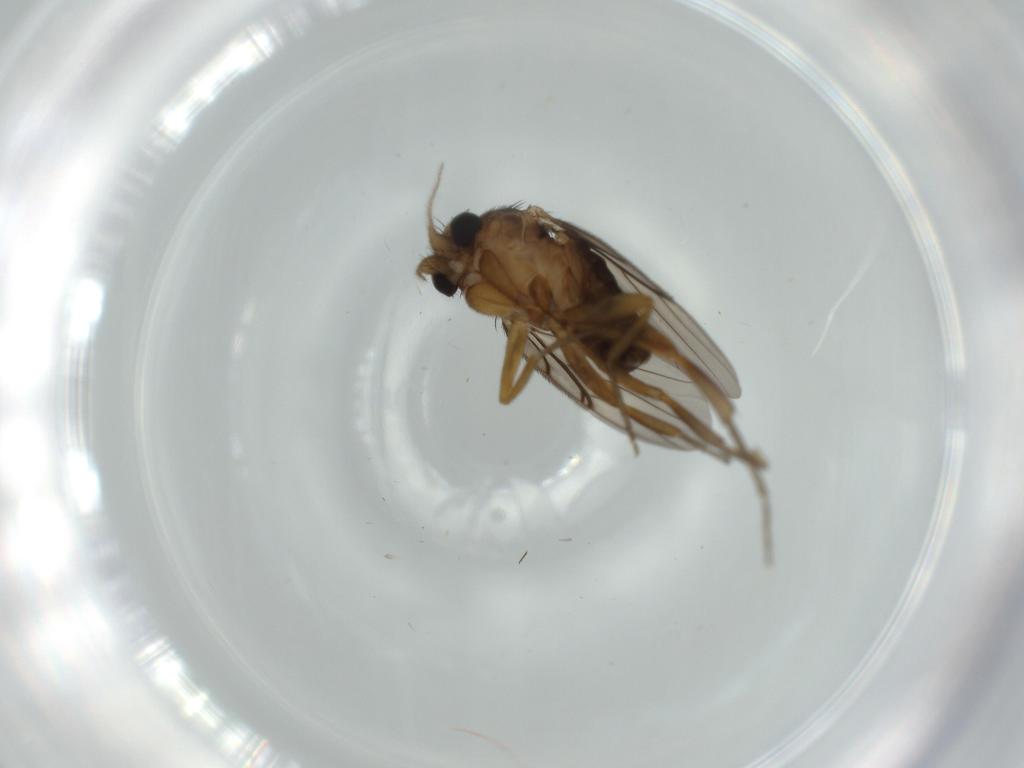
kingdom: Animalia
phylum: Arthropoda
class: Insecta
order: Diptera
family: Phoridae
